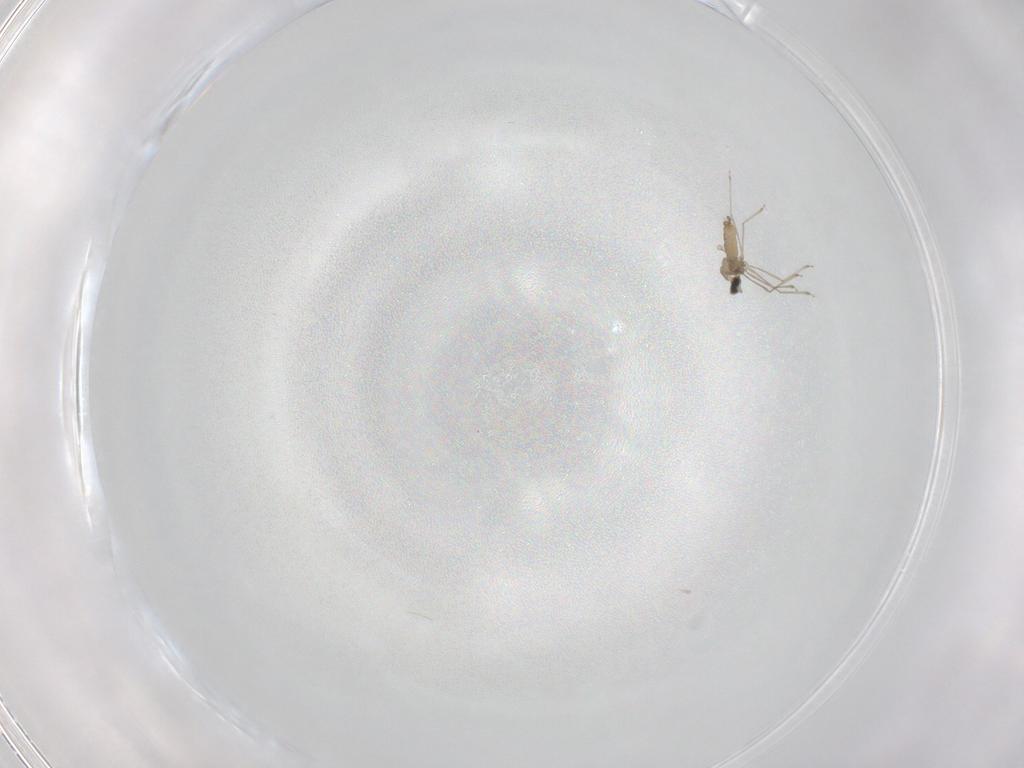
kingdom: Animalia
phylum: Arthropoda
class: Insecta
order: Diptera
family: Cecidomyiidae
